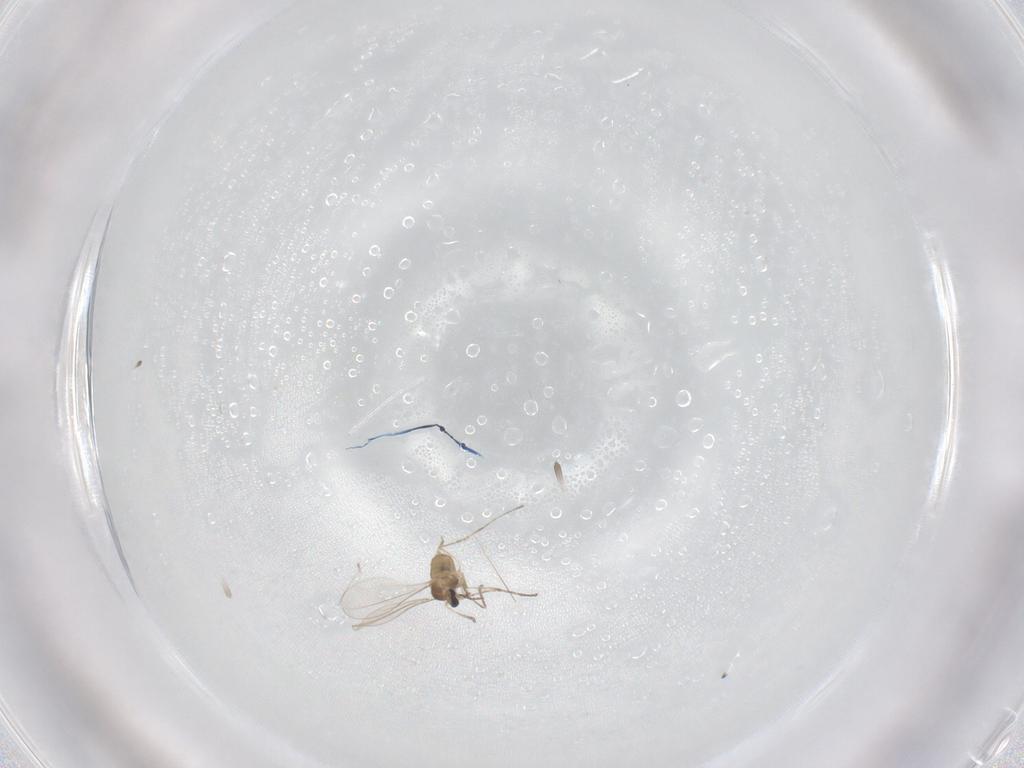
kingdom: Animalia
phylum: Arthropoda
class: Insecta
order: Diptera
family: Cecidomyiidae
